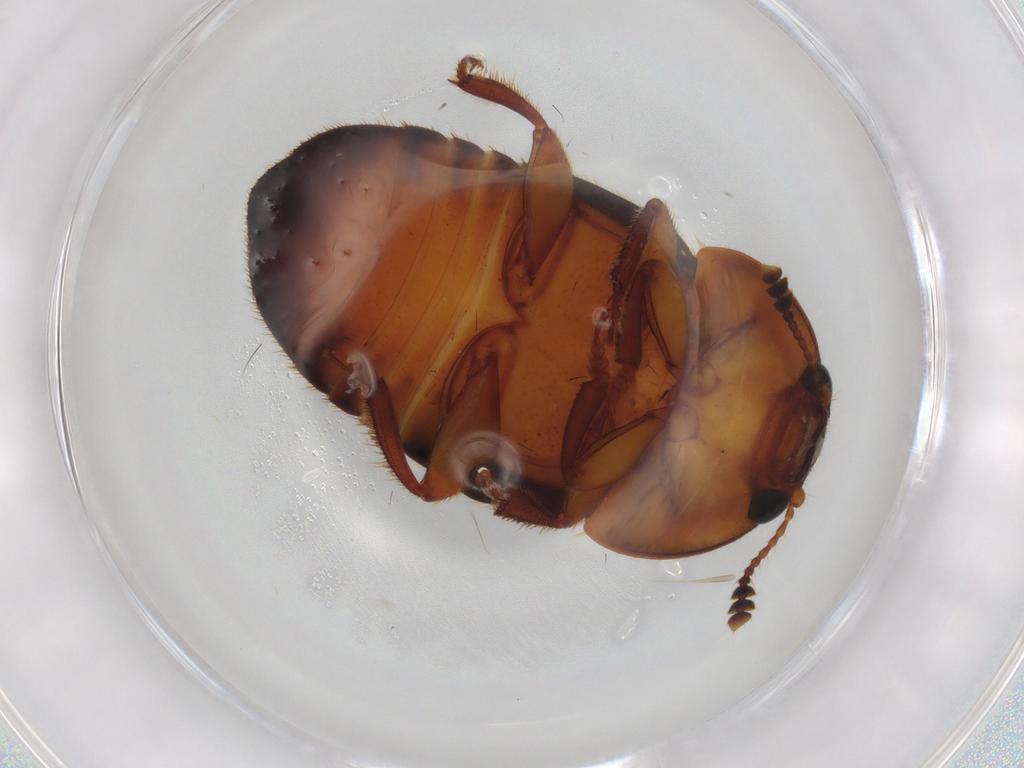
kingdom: Animalia
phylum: Arthropoda
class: Insecta
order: Coleoptera
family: Nitidulidae
